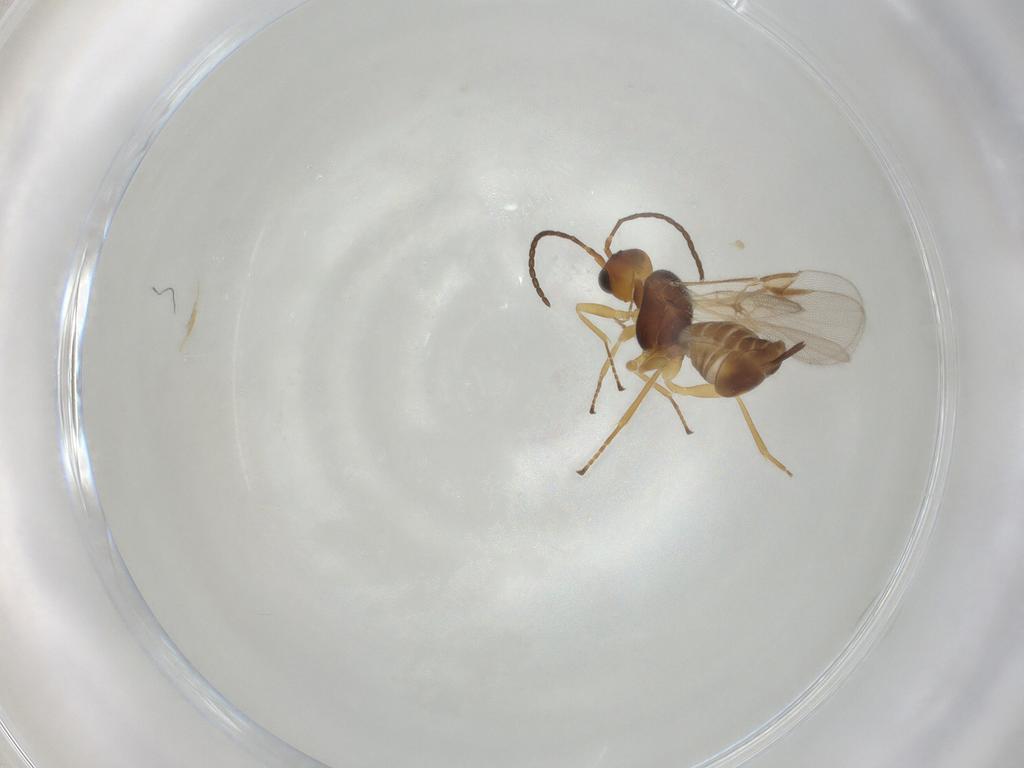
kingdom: Animalia
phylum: Arthropoda
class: Insecta
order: Hymenoptera
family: Braconidae
